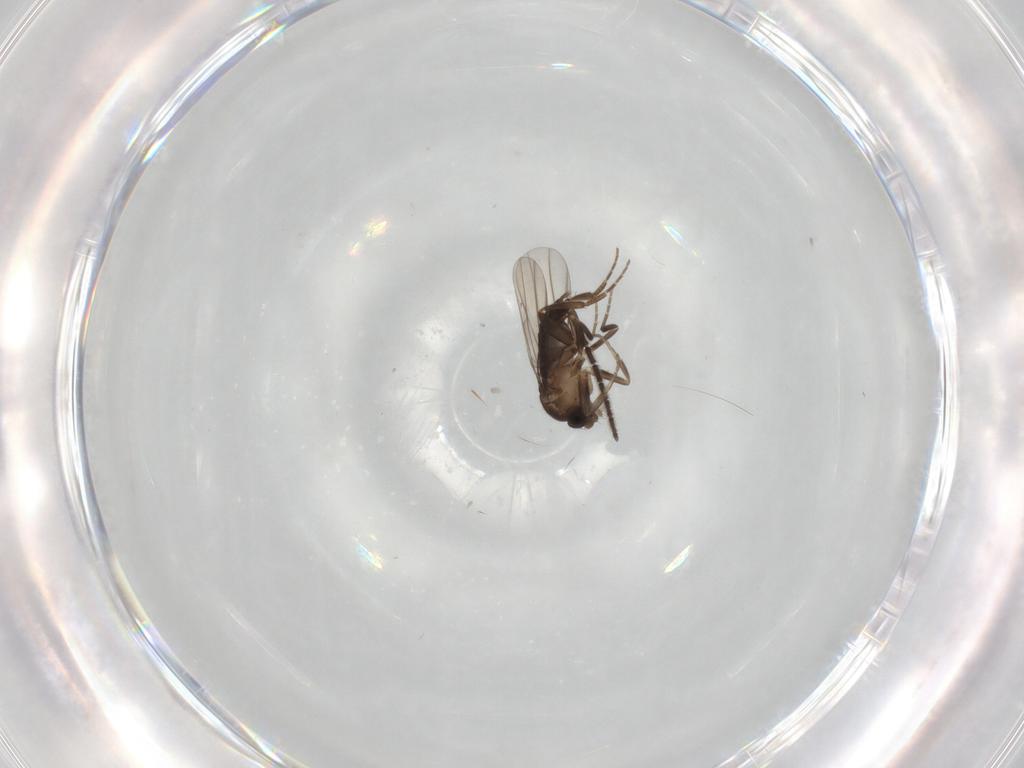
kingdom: Animalia
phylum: Arthropoda
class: Insecta
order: Diptera
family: Sciaridae
